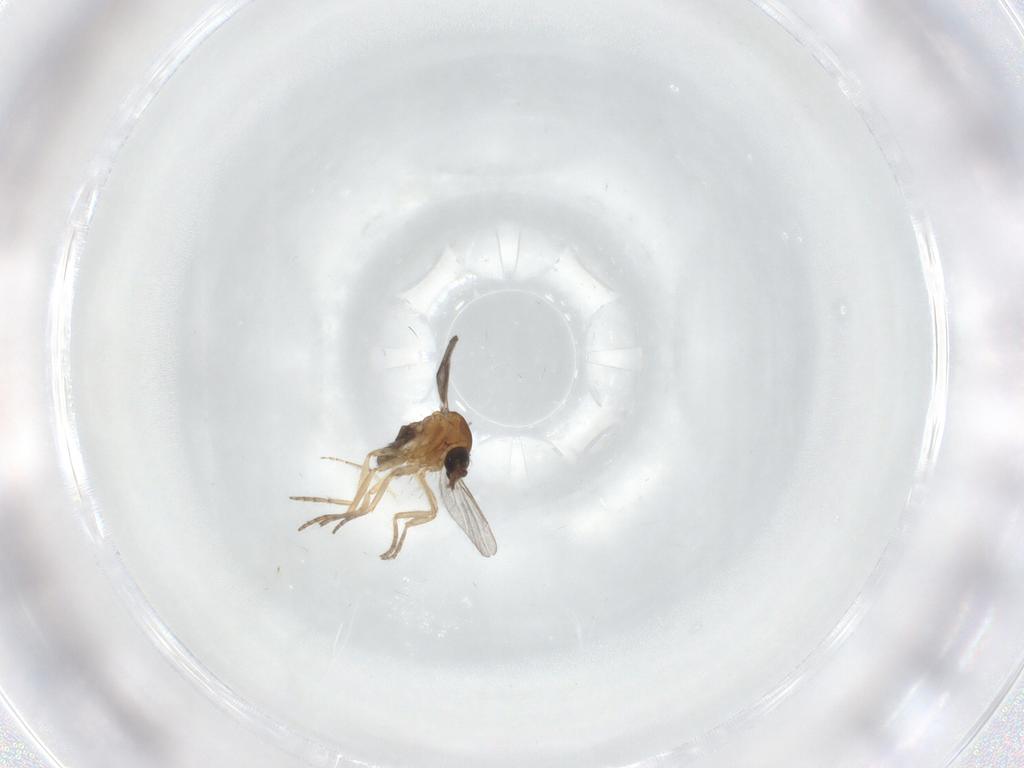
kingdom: Animalia
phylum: Arthropoda
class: Insecta
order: Diptera
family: Ceratopogonidae
